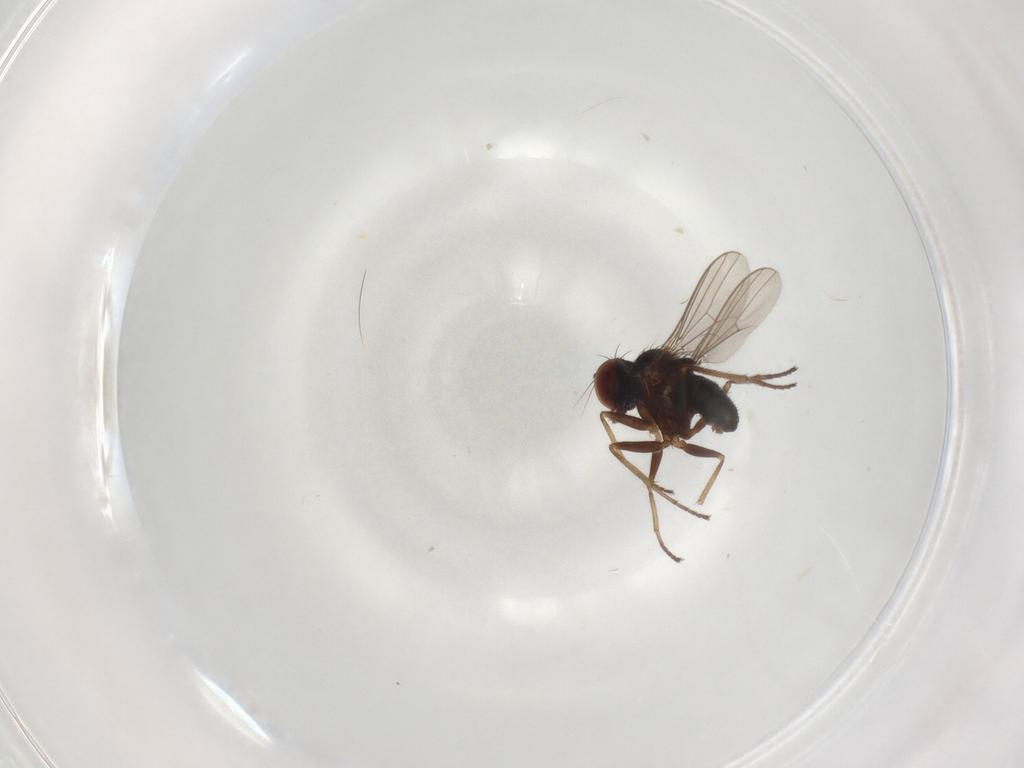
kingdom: Animalia
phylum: Arthropoda
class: Insecta
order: Diptera
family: Dolichopodidae
